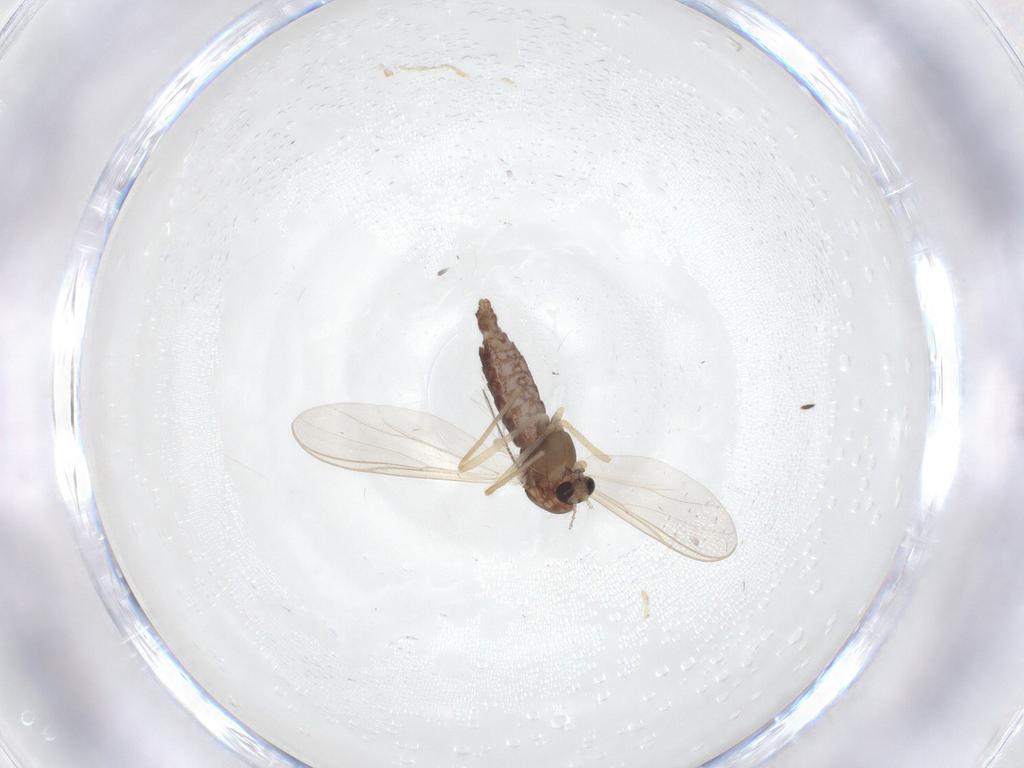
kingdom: Animalia
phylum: Arthropoda
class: Insecta
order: Diptera
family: Chironomidae
